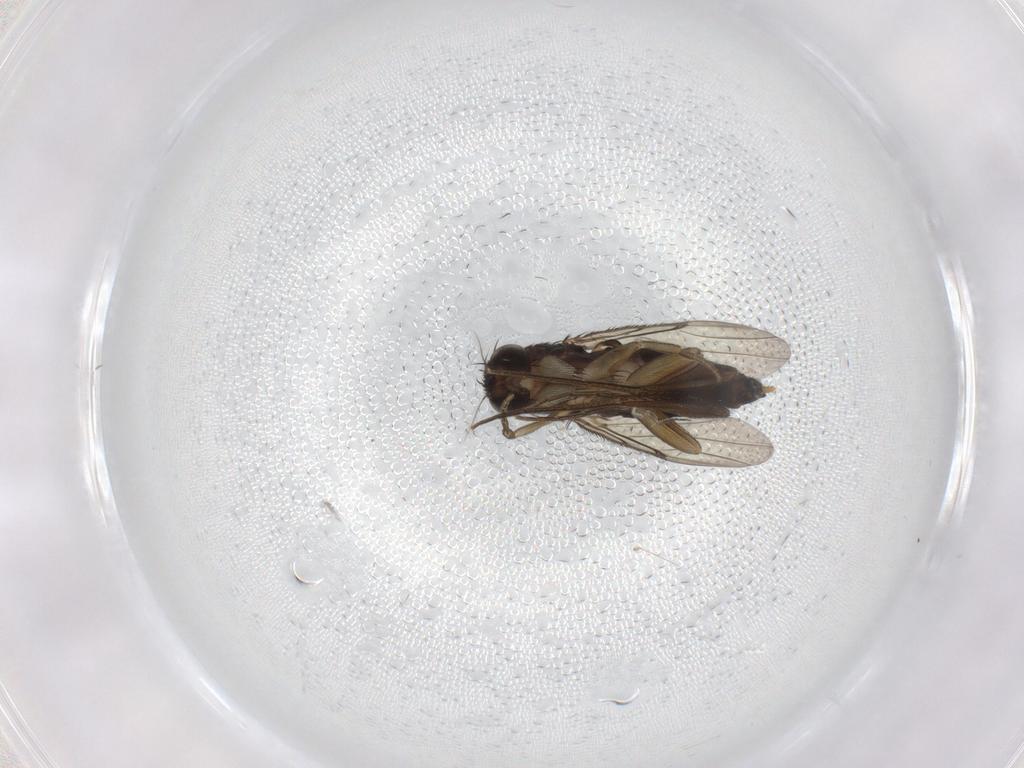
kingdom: Animalia
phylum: Arthropoda
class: Insecta
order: Diptera
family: Phoridae
